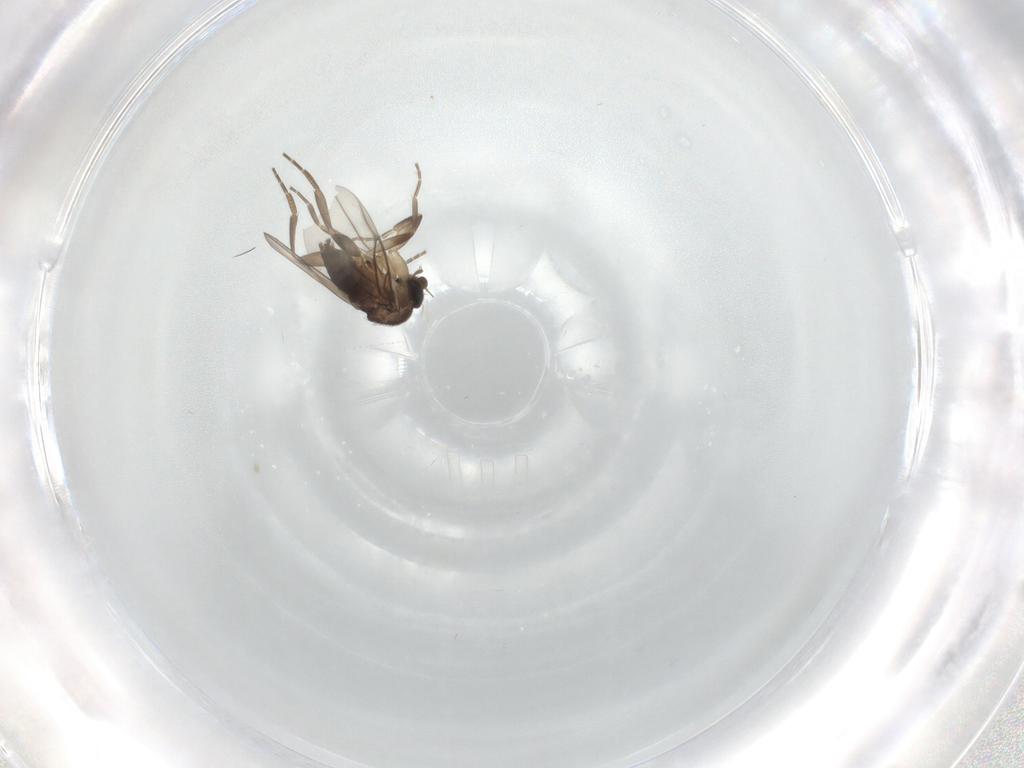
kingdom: Animalia
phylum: Arthropoda
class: Insecta
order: Diptera
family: Phoridae
